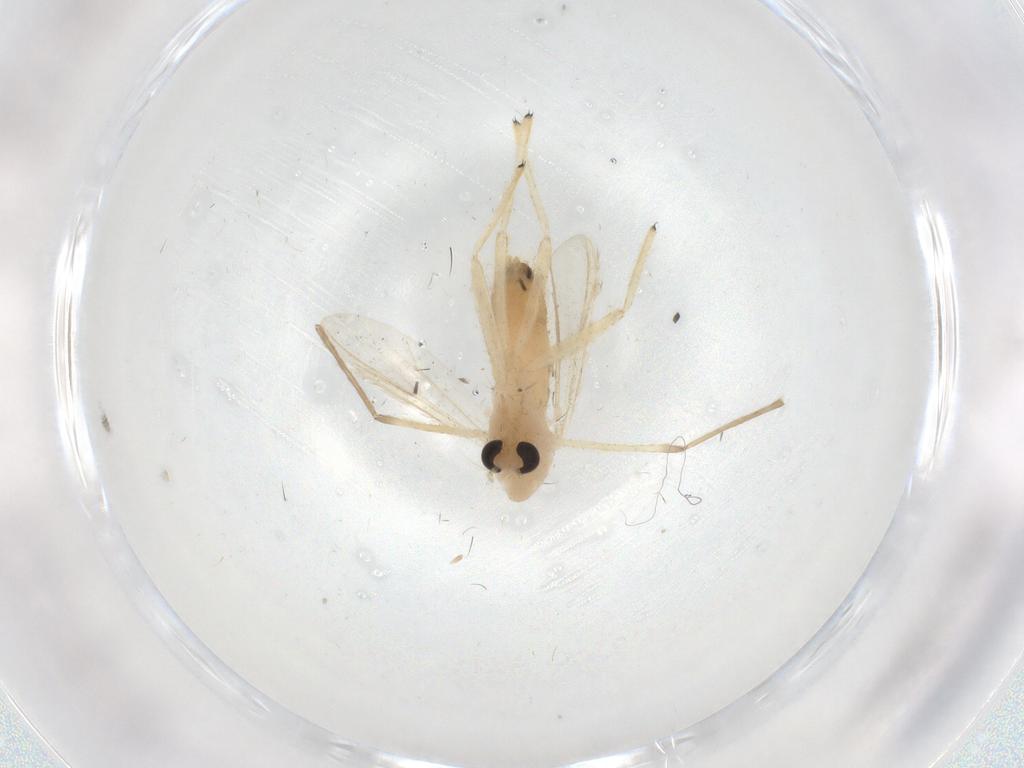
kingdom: Animalia
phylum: Arthropoda
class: Insecta
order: Diptera
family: Chironomidae
